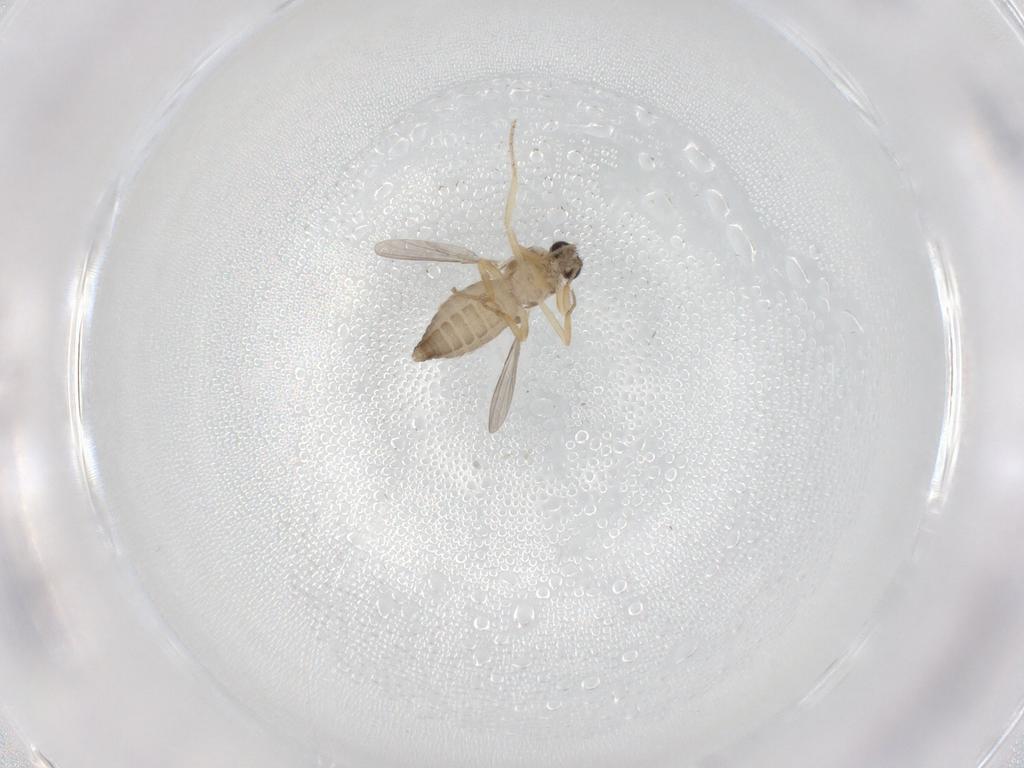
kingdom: Animalia
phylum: Arthropoda
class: Insecta
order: Diptera
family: Ceratopogonidae
